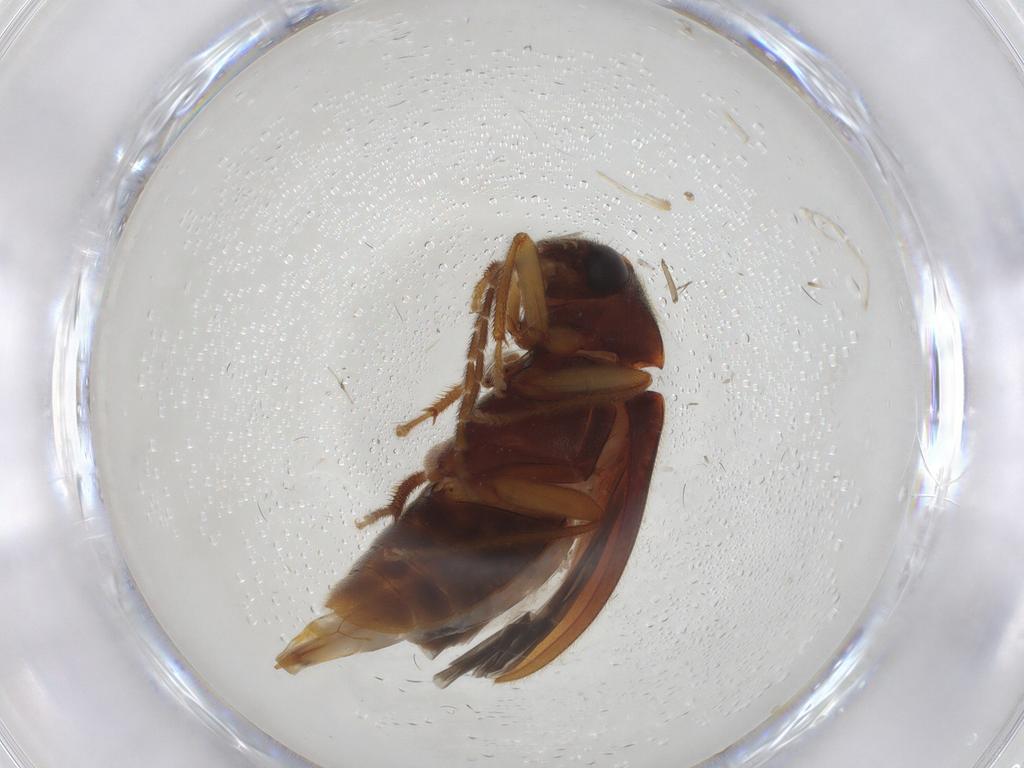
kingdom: Animalia
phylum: Arthropoda
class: Insecta
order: Coleoptera
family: Ptilodactylidae
